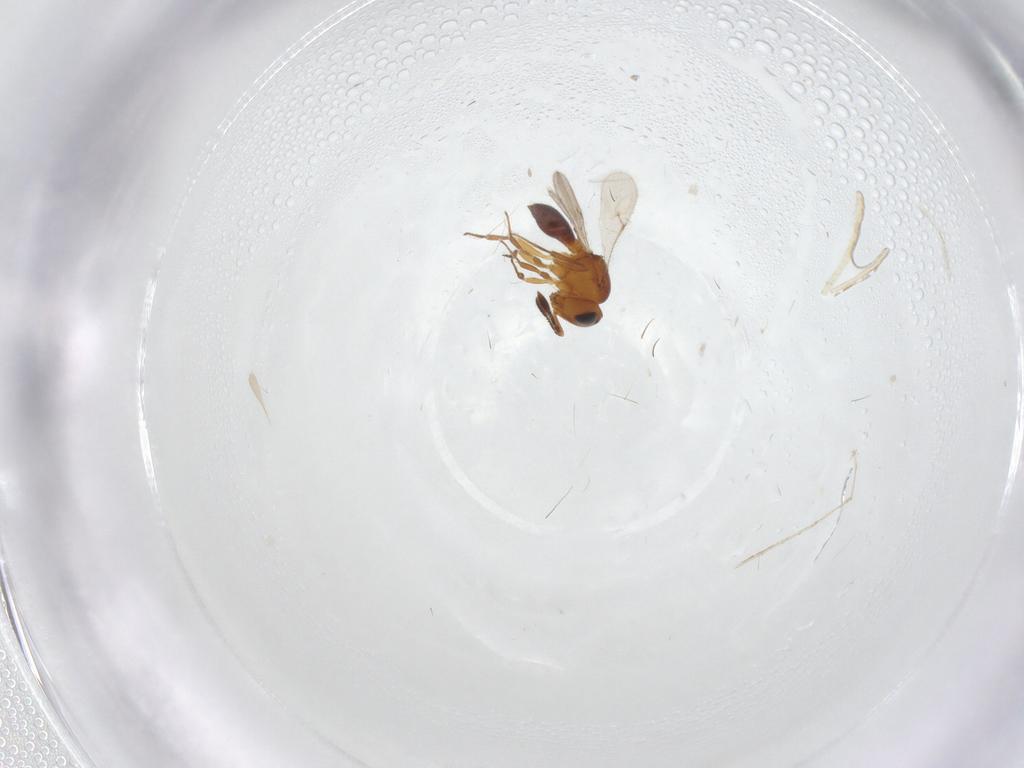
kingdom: Animalia
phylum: Arthropoda
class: Insecta
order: Hymenoptera
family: Scelionidae
